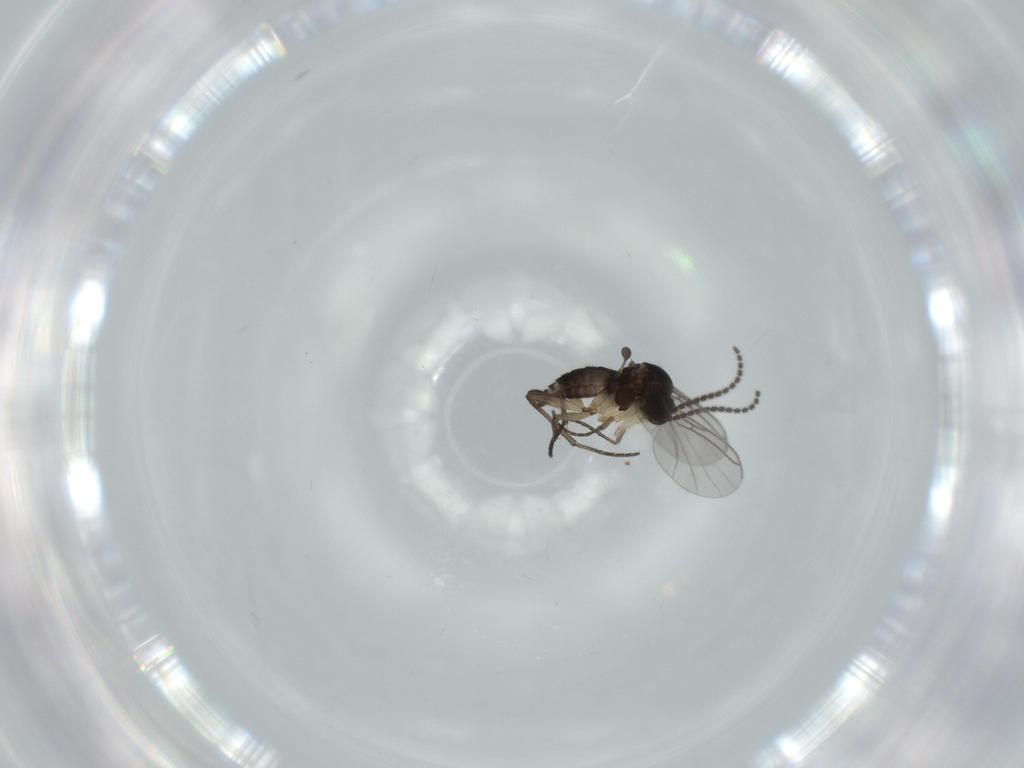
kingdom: Animalia
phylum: Arthropoda
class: Insecta
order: Diptera
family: Sciaridae
